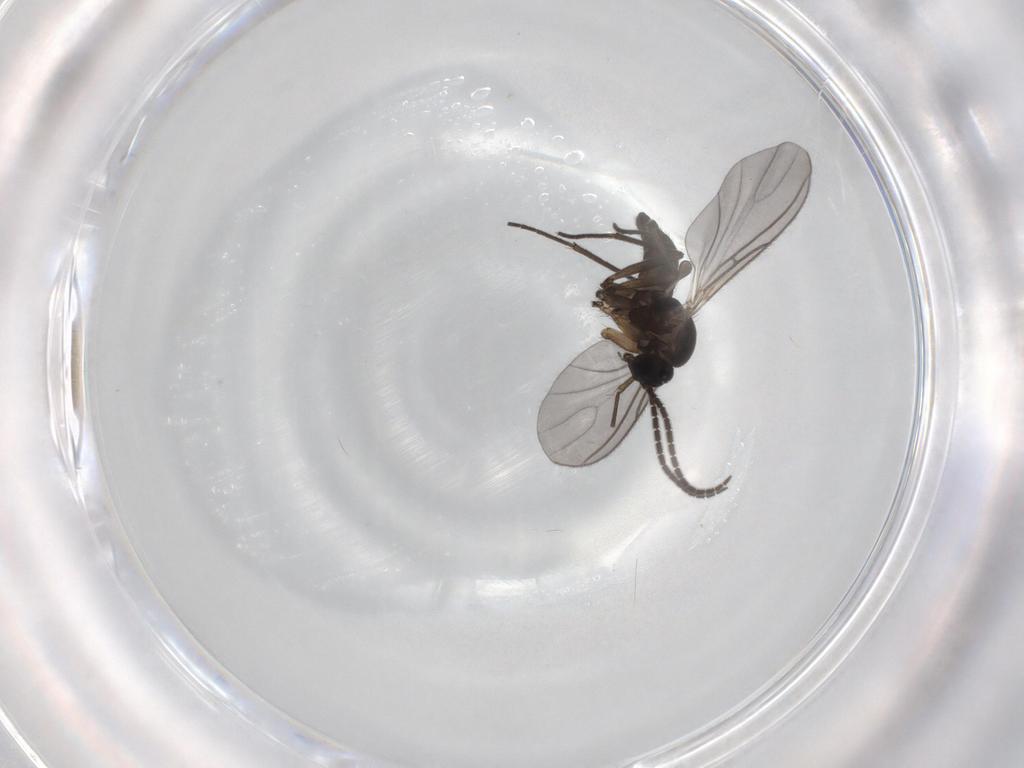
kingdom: Animalia
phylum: Arthropoda
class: Insecta
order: Diptera
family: Sciaridae
